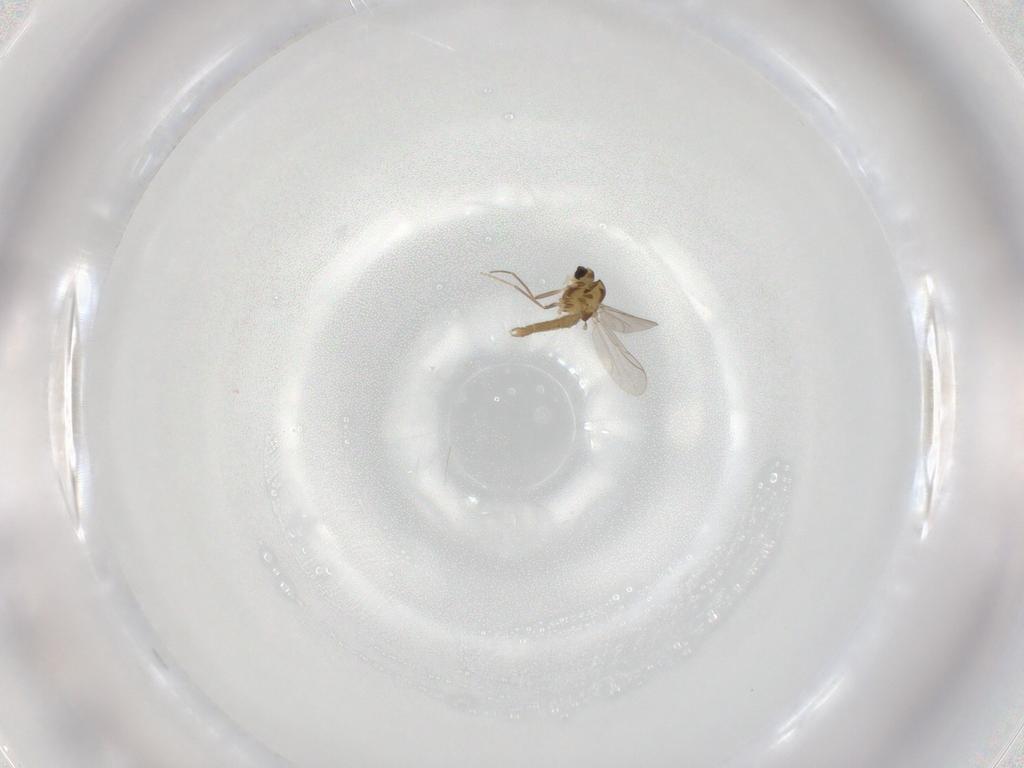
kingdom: Animalia
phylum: Arthropoda
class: Insecta
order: Diptera
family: Chironomidae
